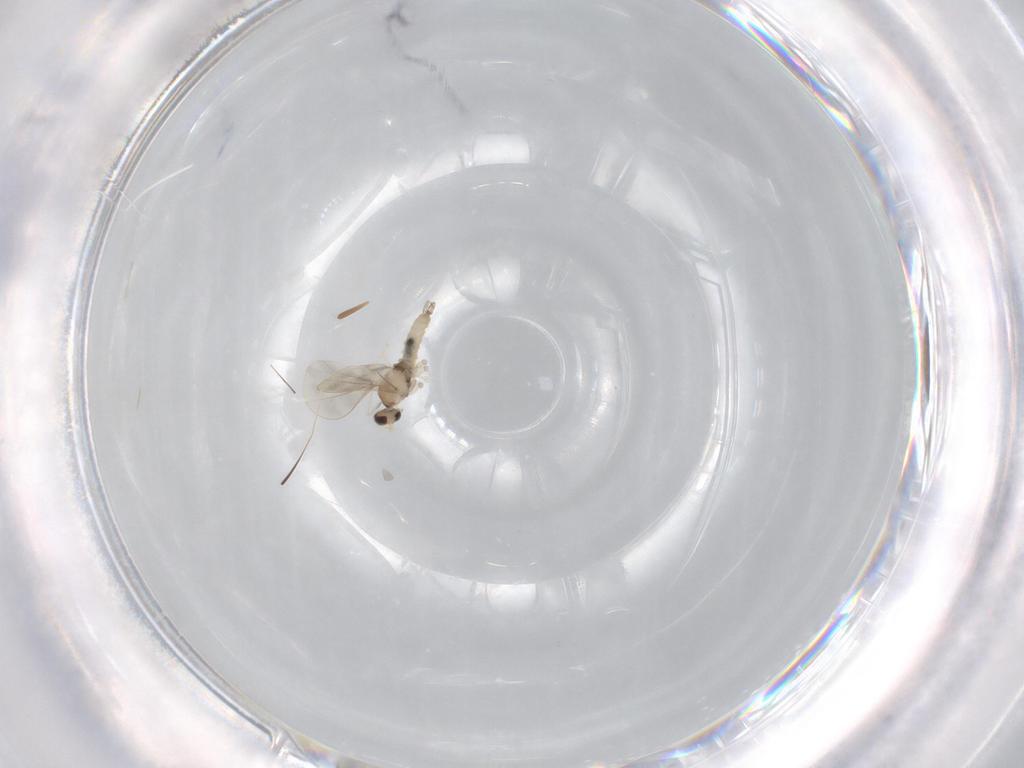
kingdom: Animalia
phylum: Arthropoda
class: Insecta
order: Diptera
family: Cecidomyiidae
